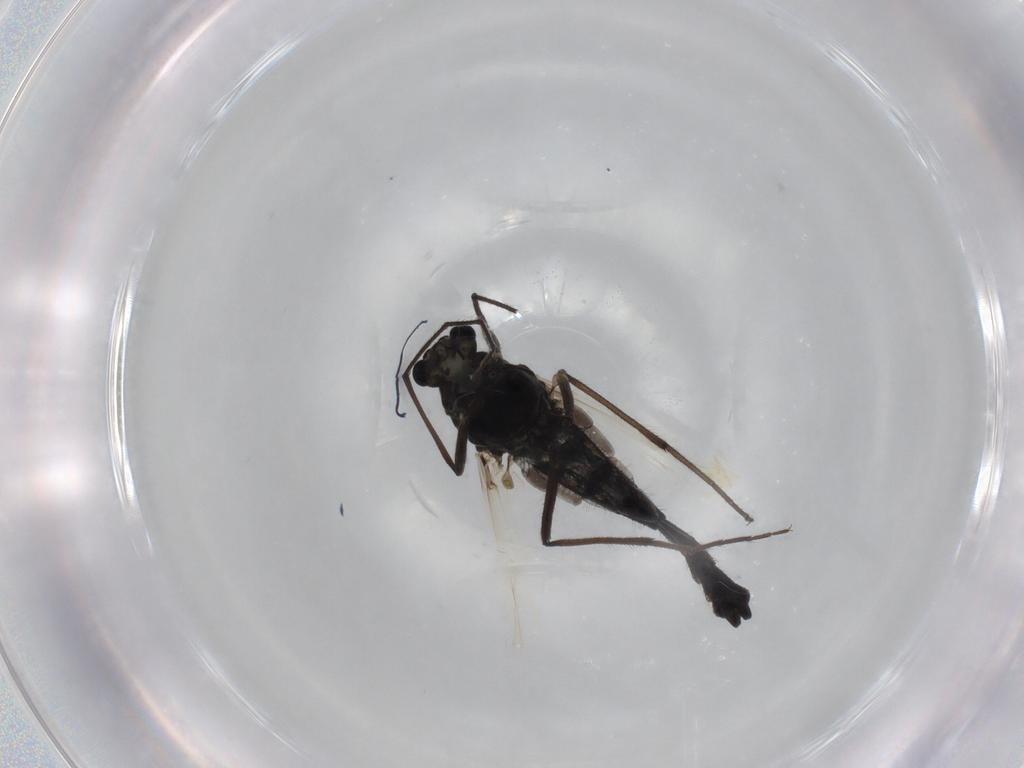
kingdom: Animalia
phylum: Arthropoda
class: Insecta
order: Diptera
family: Chironomidae
